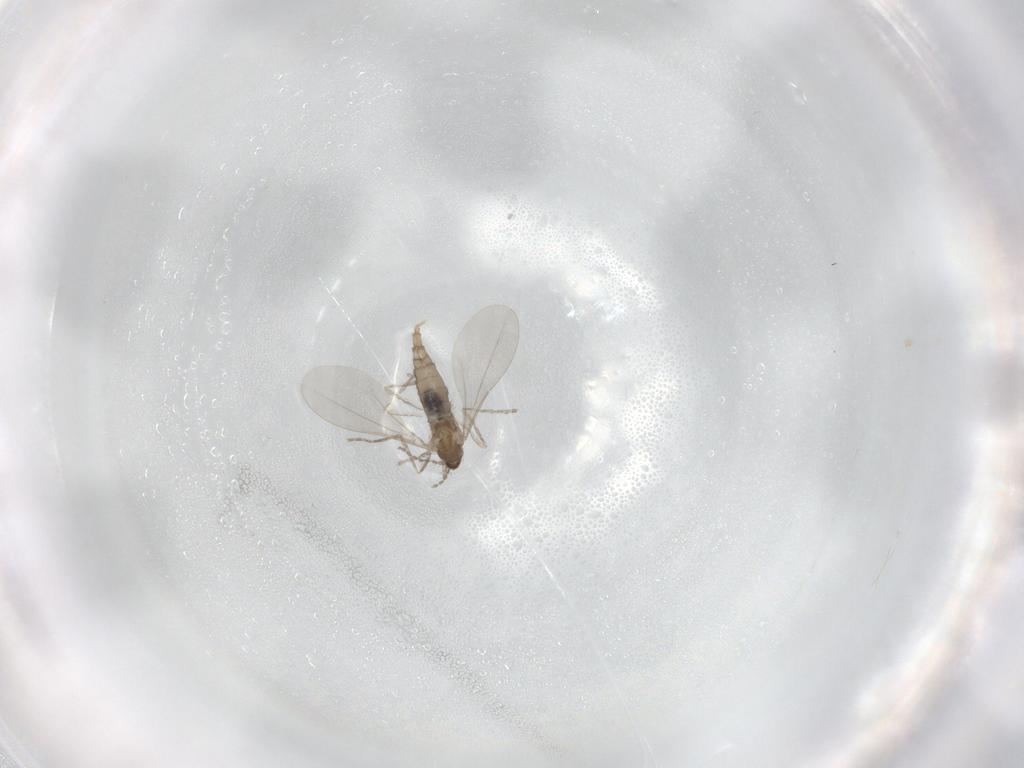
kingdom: Animalia
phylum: Arthropoda
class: Insecta
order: Diptera
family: Cecidomyiidae
